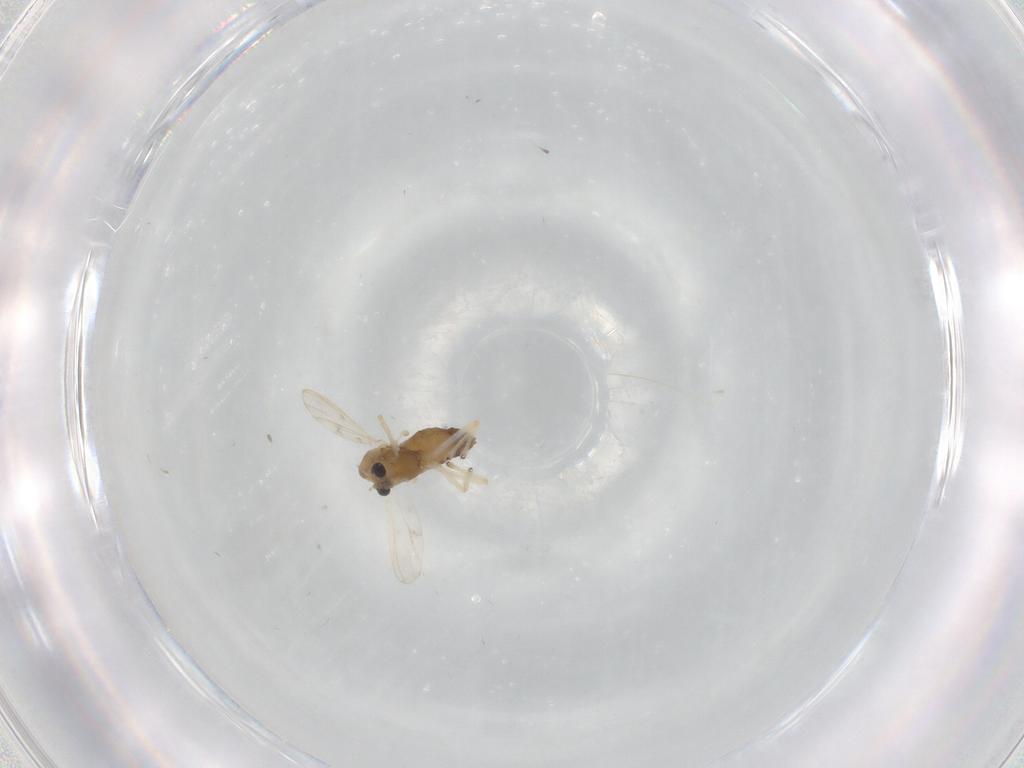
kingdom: Animalia
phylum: Arthropoda
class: Insecta
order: Diptera
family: Chironomidae
